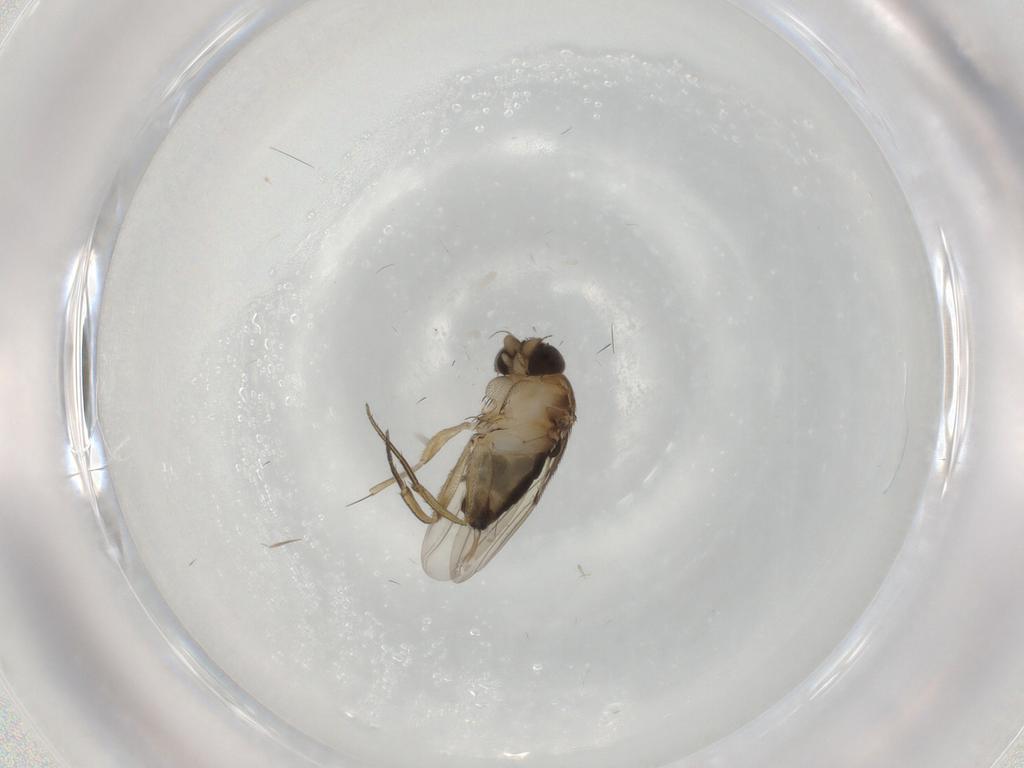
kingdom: Animalia
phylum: Arthropoda
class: Insecta
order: Diptera
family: Phoridae
